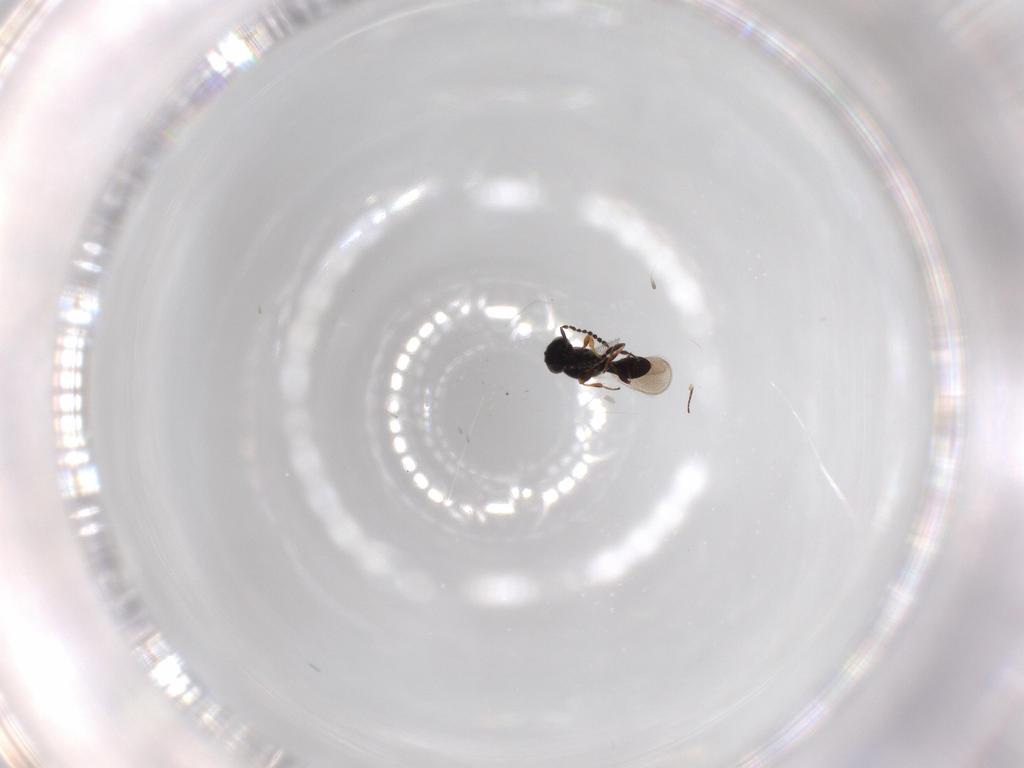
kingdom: Animalia
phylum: Arthropoda
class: Insecta
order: Hymenoptera
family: Platygastridae
